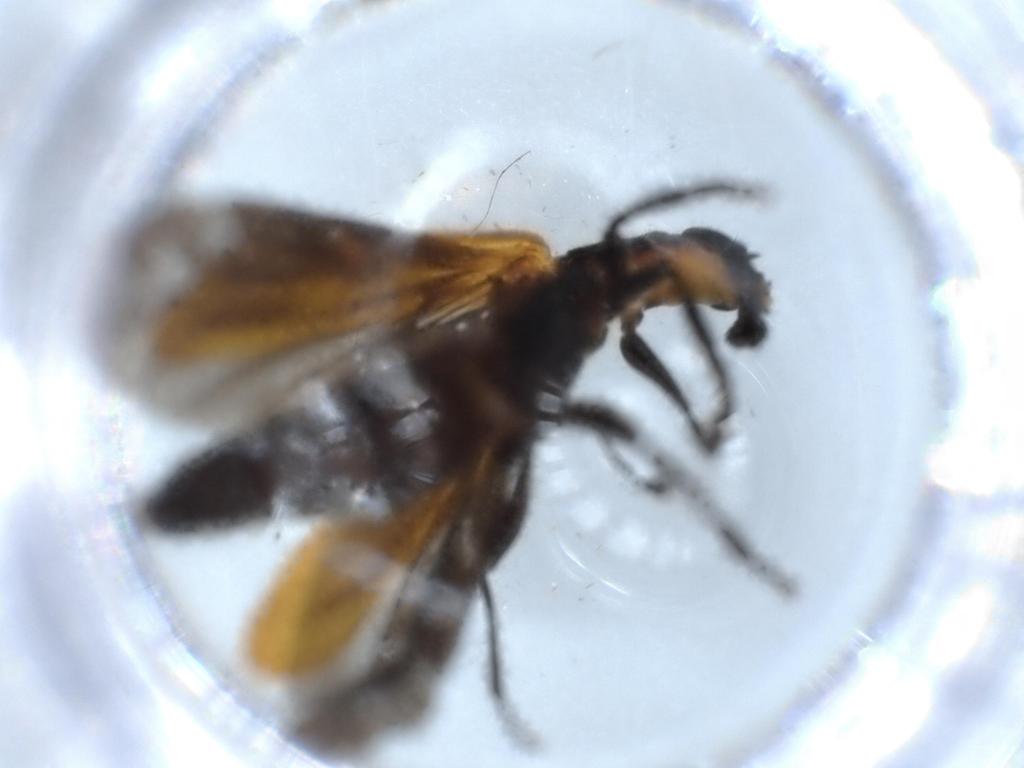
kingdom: Animalia
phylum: Arthropoda
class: Insecta
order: Coleoptera
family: Cleridae
